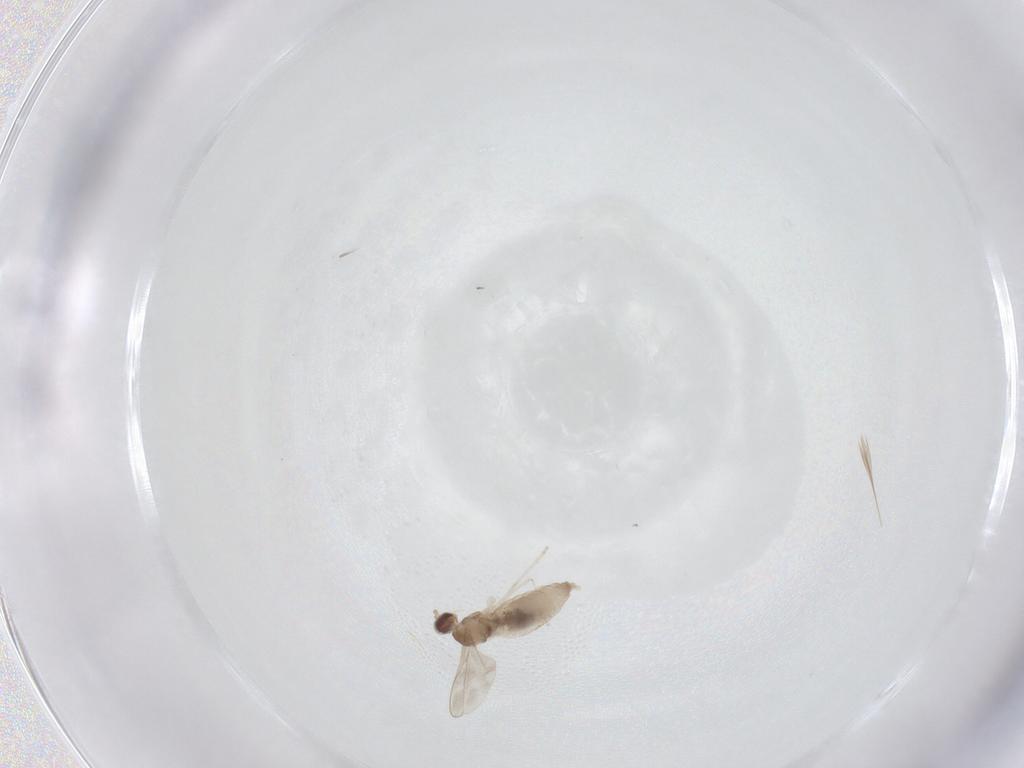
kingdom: Animalia
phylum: Arthropoda
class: Insecta
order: Diptera
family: Cecidomyiidae
